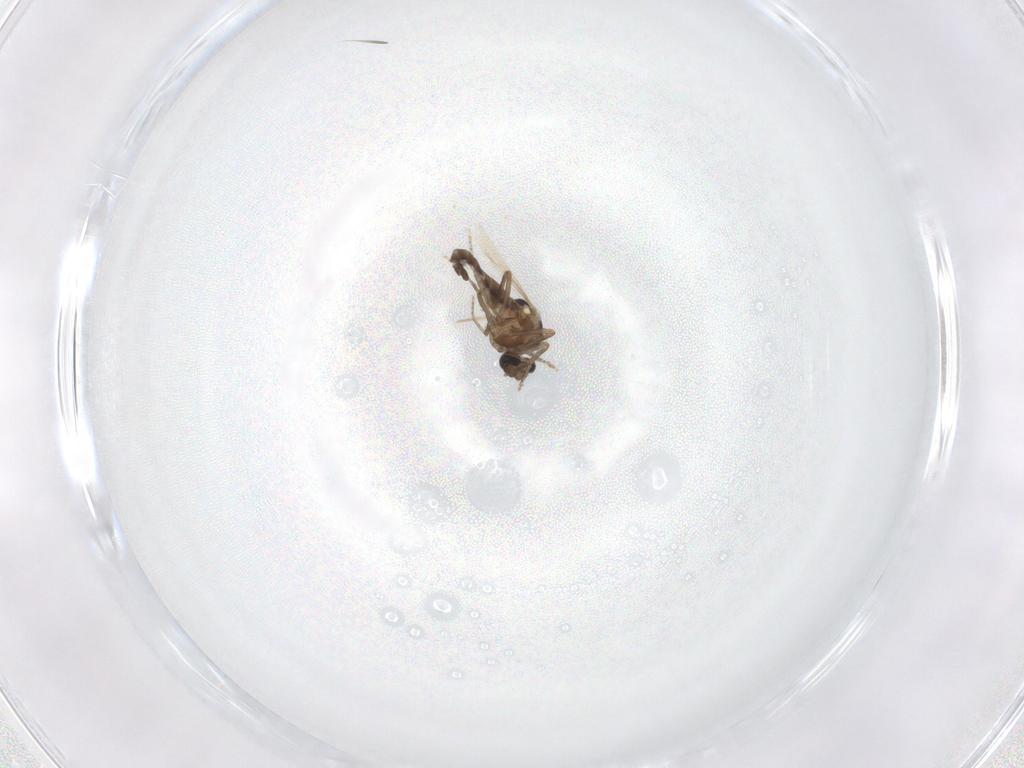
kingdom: Animalia
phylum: Arthropoda
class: Insecta
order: Diptera
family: Ceratopogonidae
